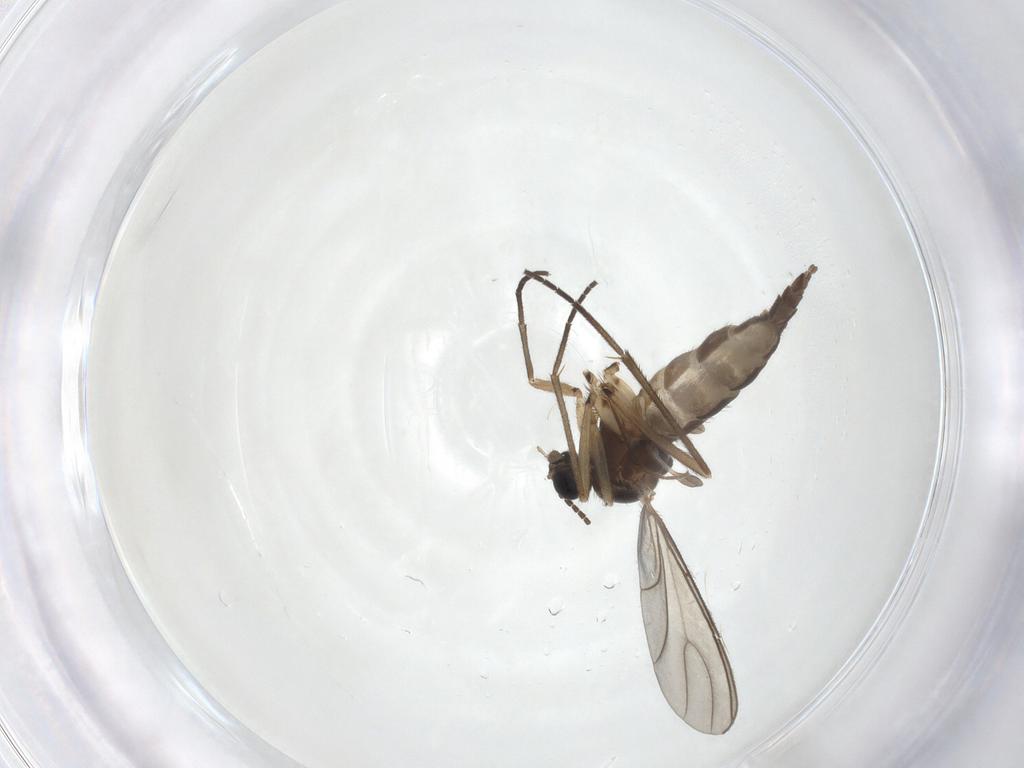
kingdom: Animalia
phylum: Arthropoda
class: Insecta
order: Diptera
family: Sciaridae
